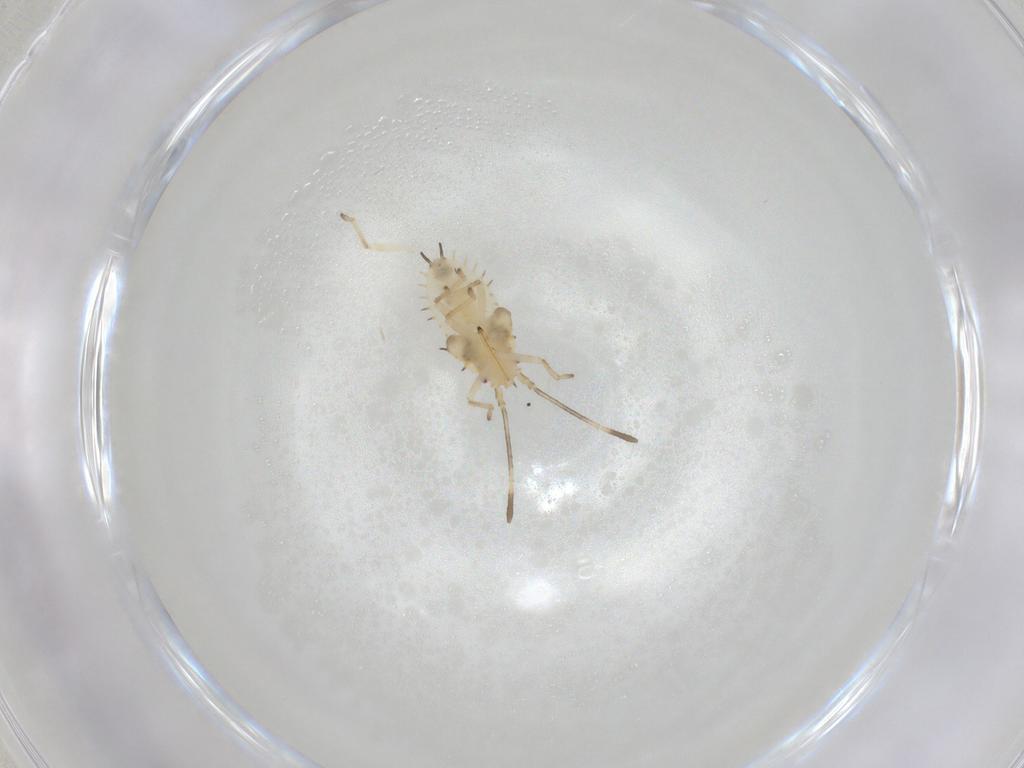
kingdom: Animalia
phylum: Arthropoda
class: Insecta
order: Hemiptera
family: Tingidae
